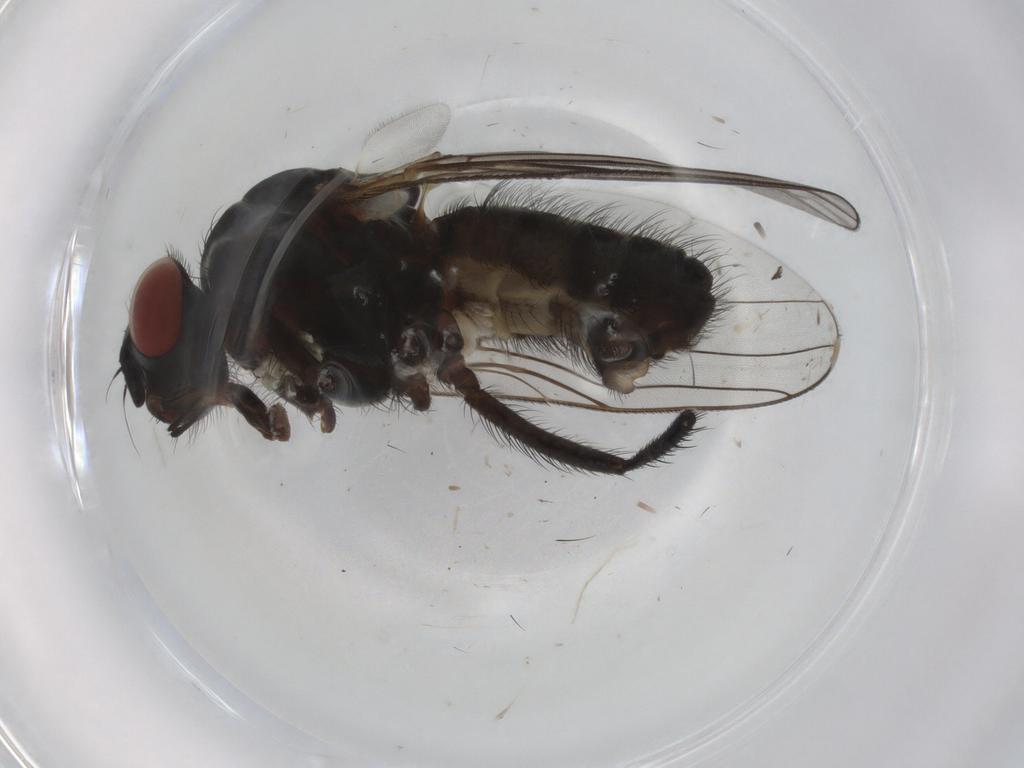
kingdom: Animalia
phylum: Arthropoda
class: Insecta
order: Diptera
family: Anthomyiidae
